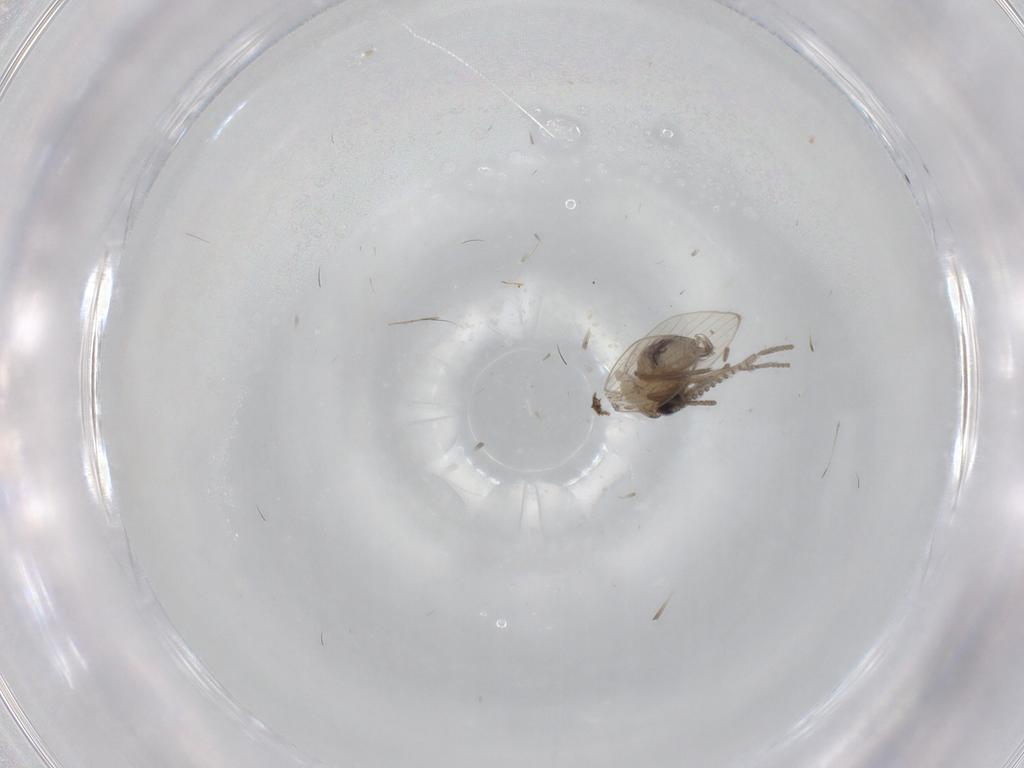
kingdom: Animalia
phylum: Arthropoda
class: Insecta
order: Diptera
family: Psychodidae
